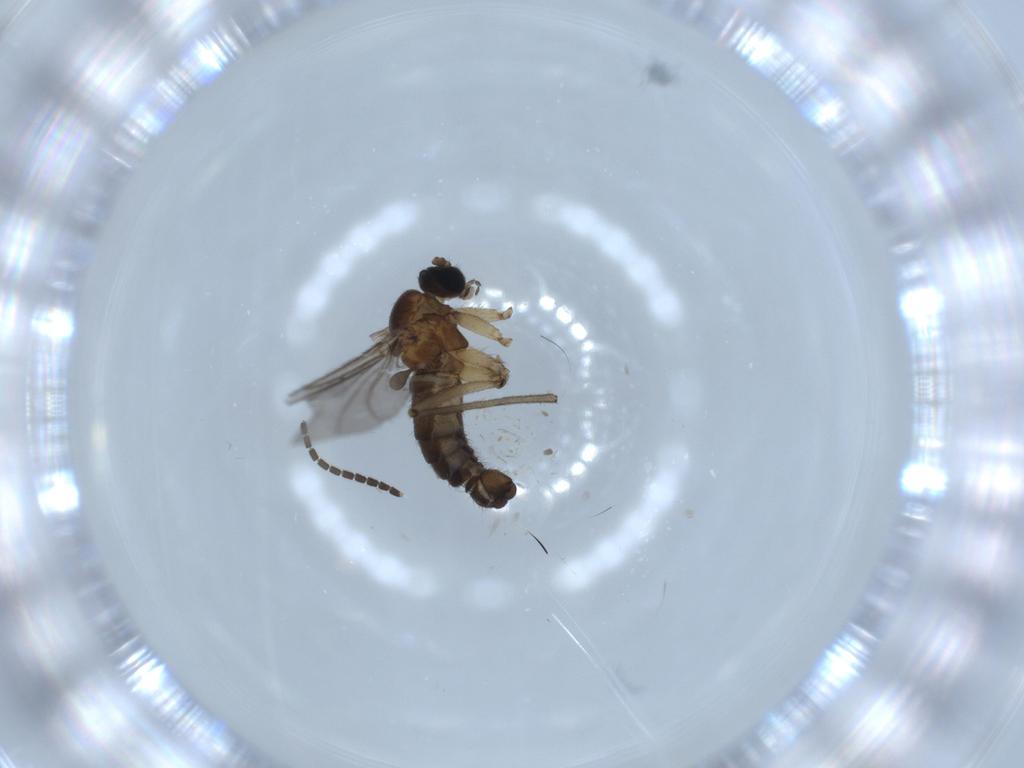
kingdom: Animalia
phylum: Arthropoda
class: Insecta
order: Diptera
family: Sciaridae
